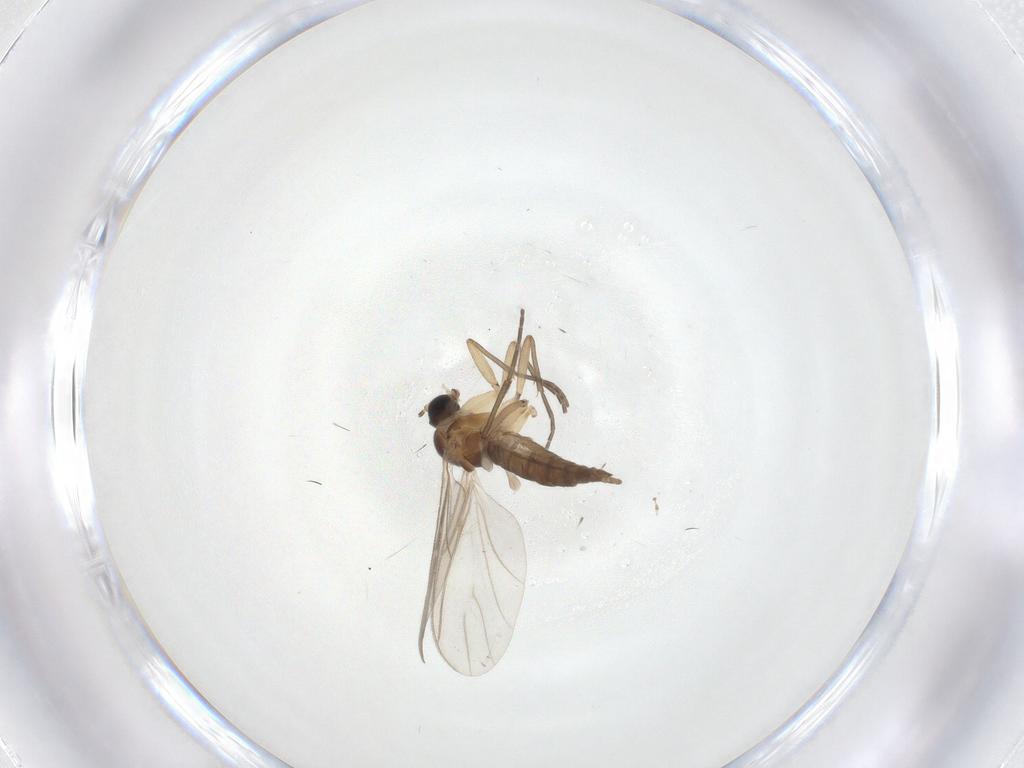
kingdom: Animalia
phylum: Arthropoda
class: Insecta
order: Diptera
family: Sciaridae
